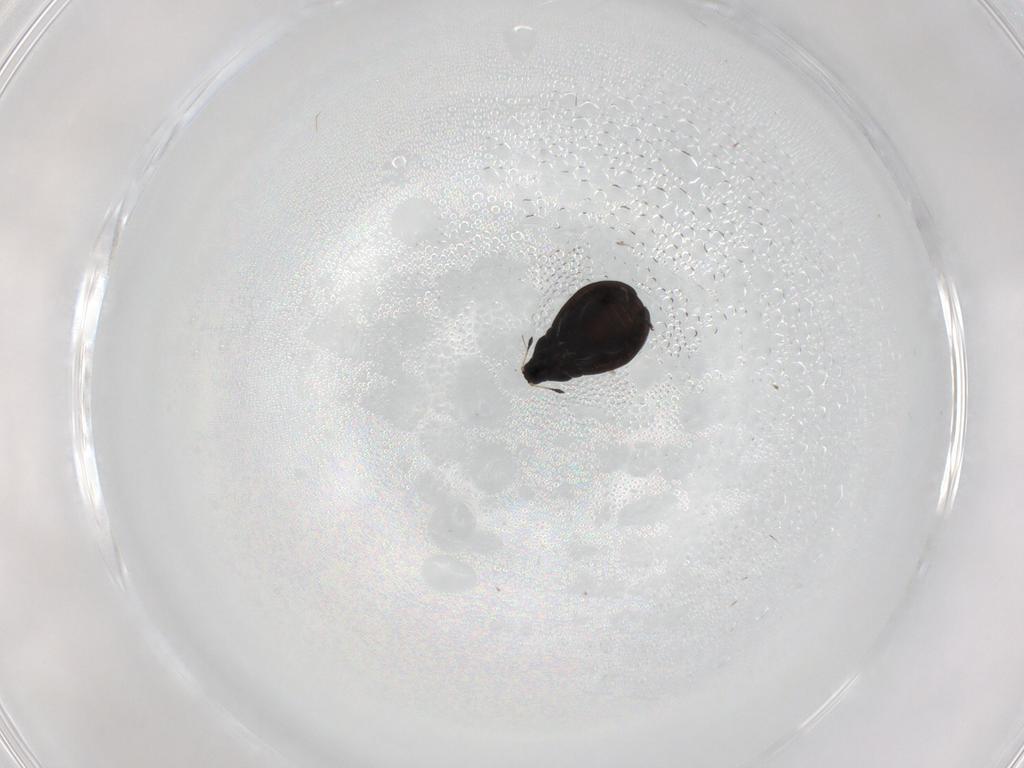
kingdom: Animalia
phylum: Arthropoda
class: Insecta
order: Coleoptera
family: Curculionidae
